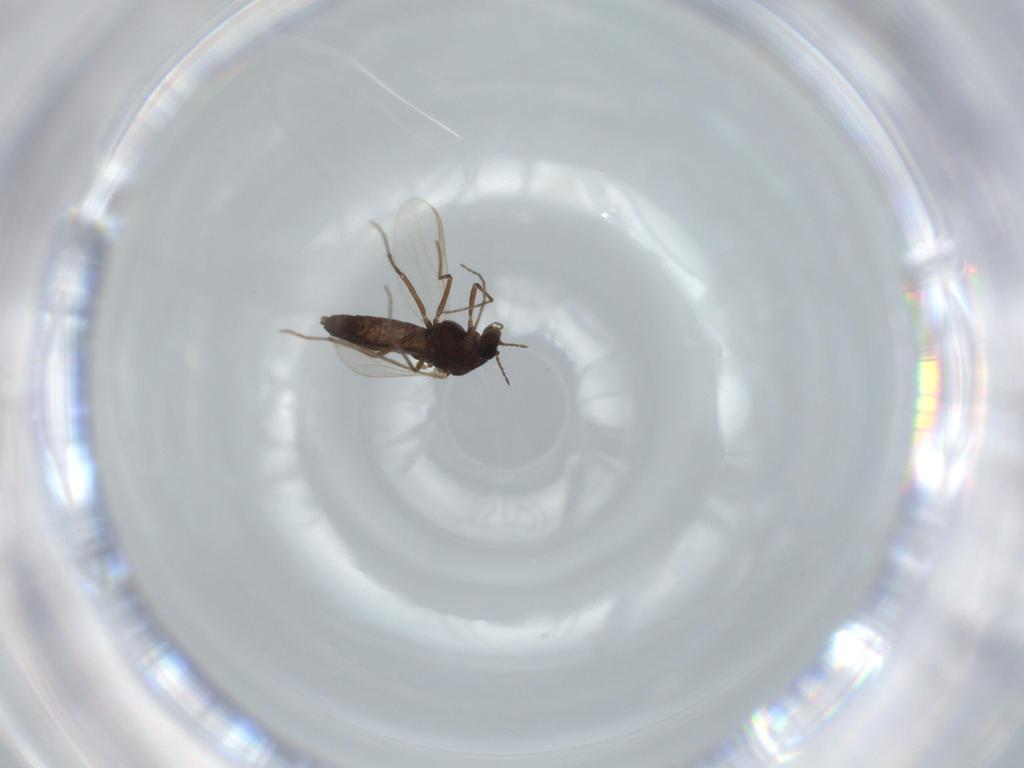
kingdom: Animalia
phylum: Arthropoda
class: Insecta
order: Diptera
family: Chironomidae
